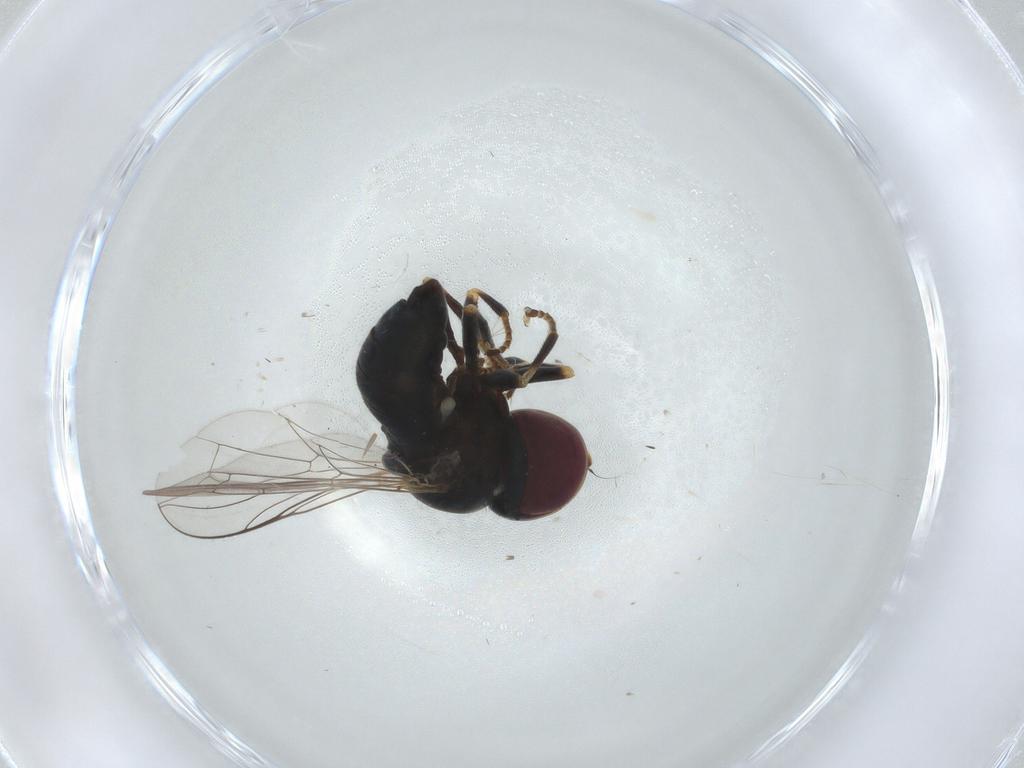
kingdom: Animalia
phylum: Arthropoda
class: Insecta
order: Diptera
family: Pipunculidae
